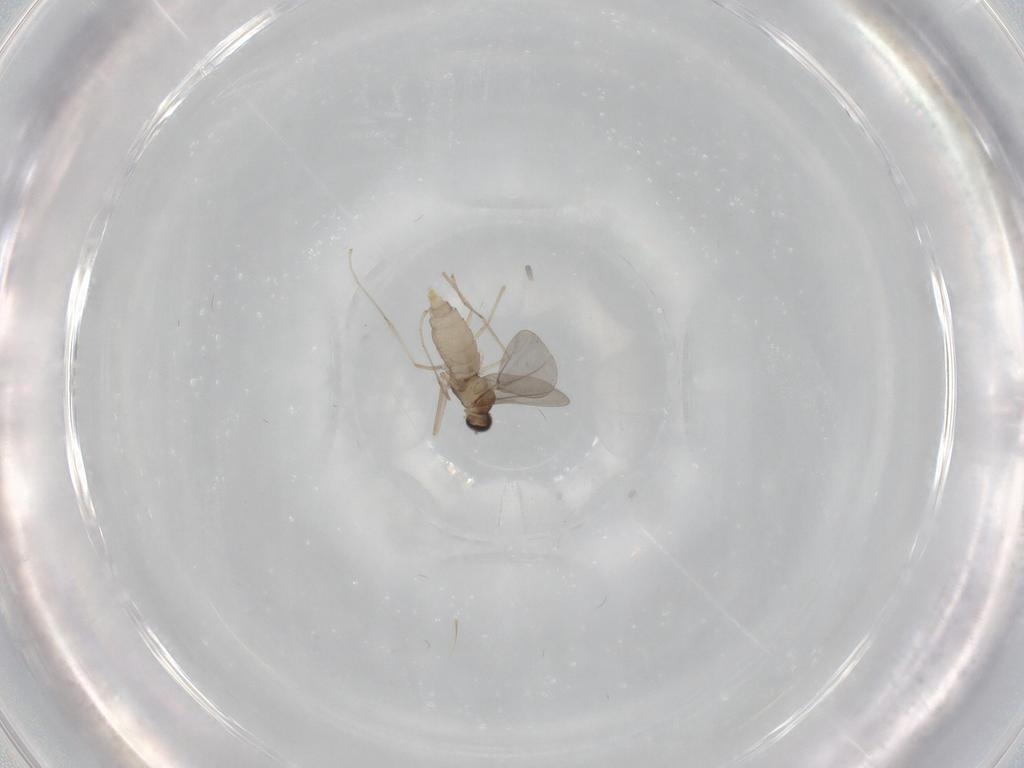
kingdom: Animalia
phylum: Arthropoda
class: Insecta
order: Diptera
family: Cecidomyiidae
